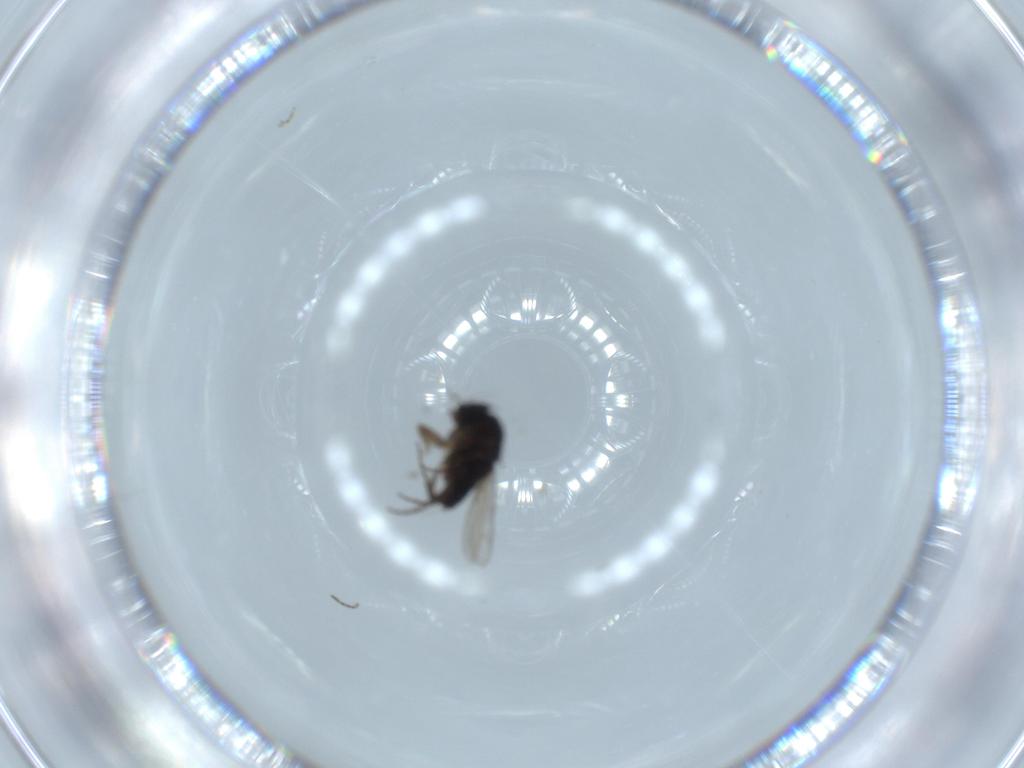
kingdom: Animalia
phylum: Arthropoda
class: Insecta
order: Diptera
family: Phoridae
